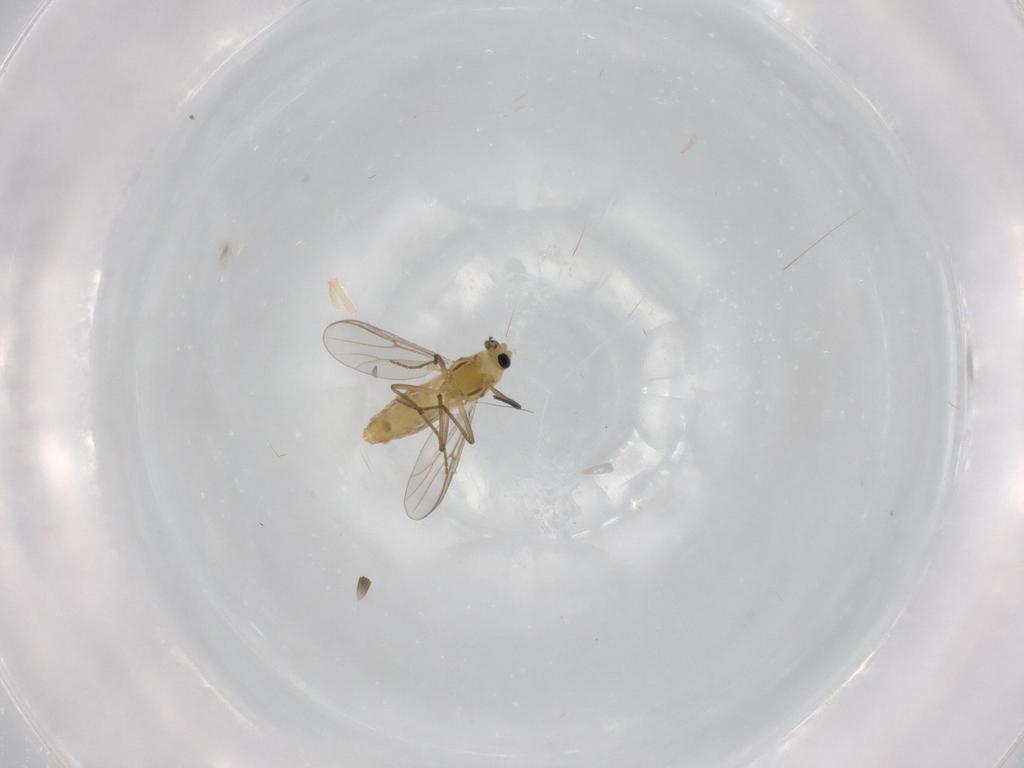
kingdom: Animalia
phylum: Arthropoda
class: Insecta
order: Diptera
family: Chironomidae
